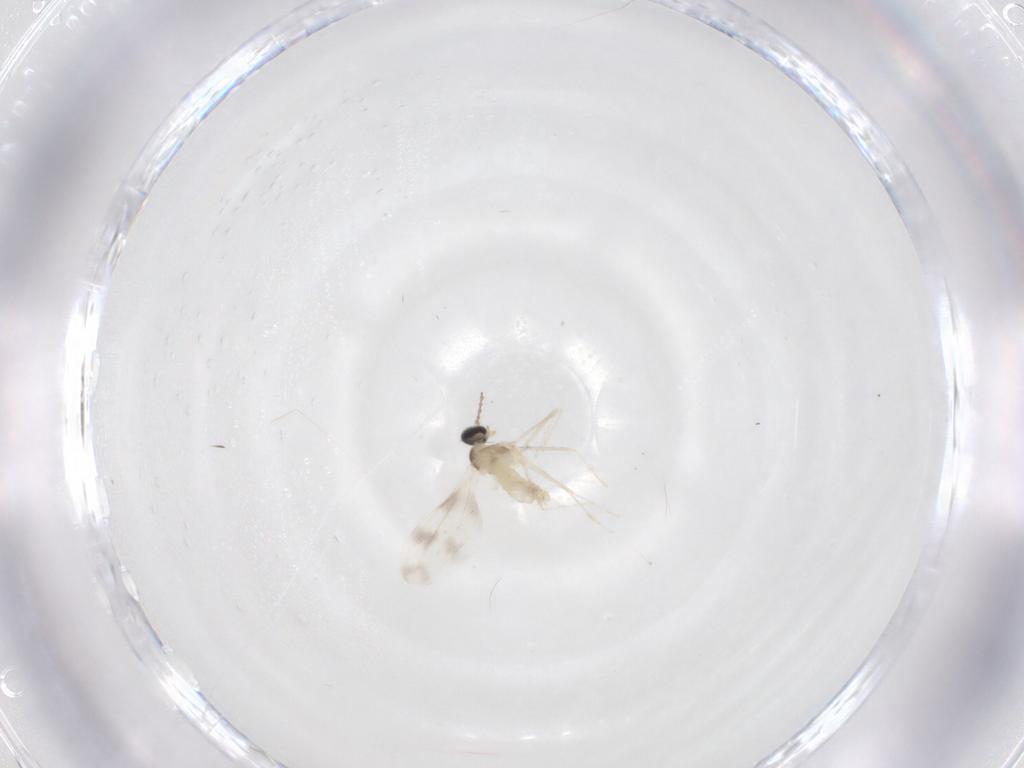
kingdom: Animalia
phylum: Arthropoda
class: Insecta
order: Diptera
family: Cecidomyiidae
